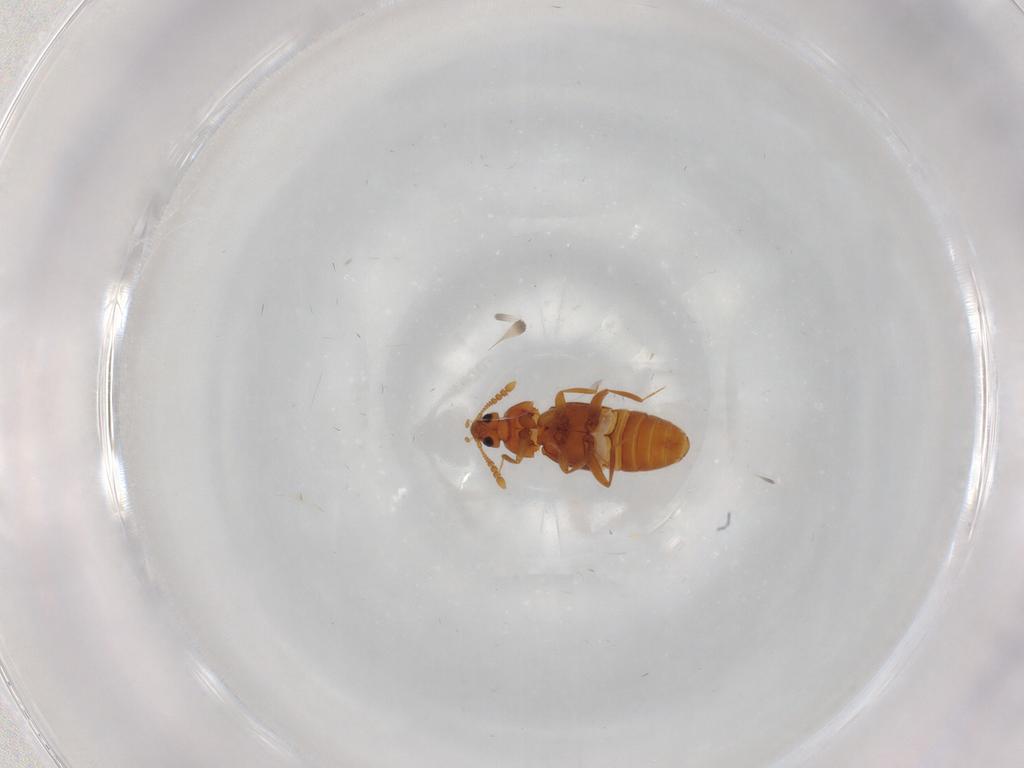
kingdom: Animalia
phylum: Arthropoda
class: Insecta
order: Coleoptera
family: Staphylinidae
